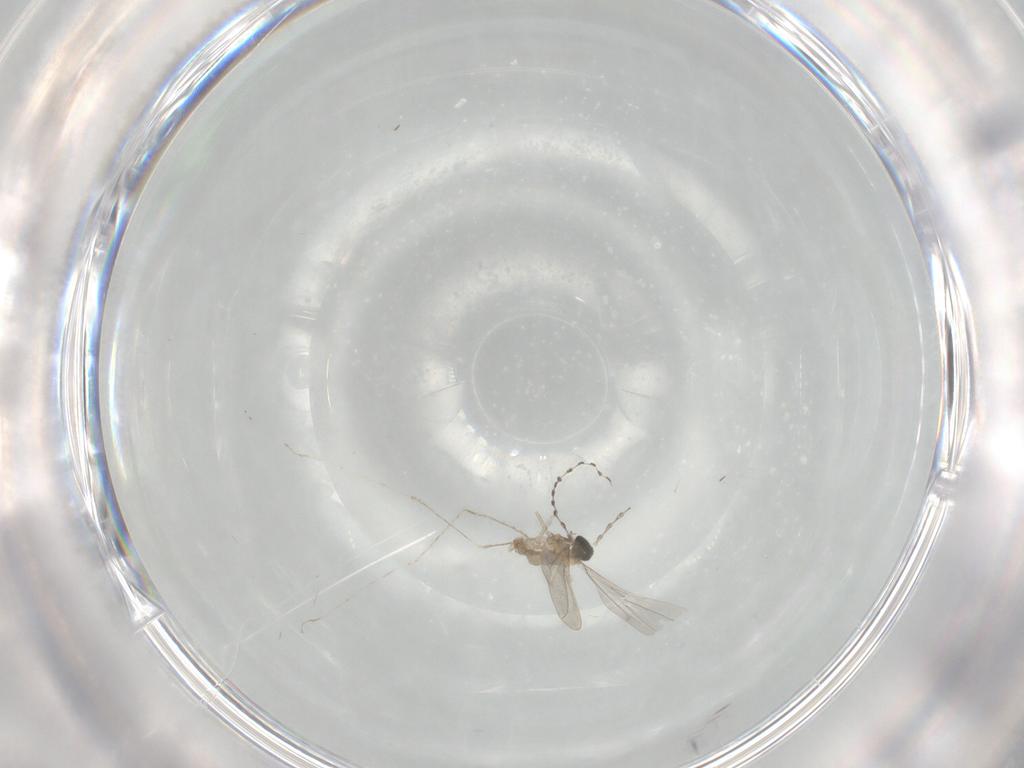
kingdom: Animalia
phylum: Arthropoda
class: Insecta
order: Diptera
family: Cecidomyiidae
